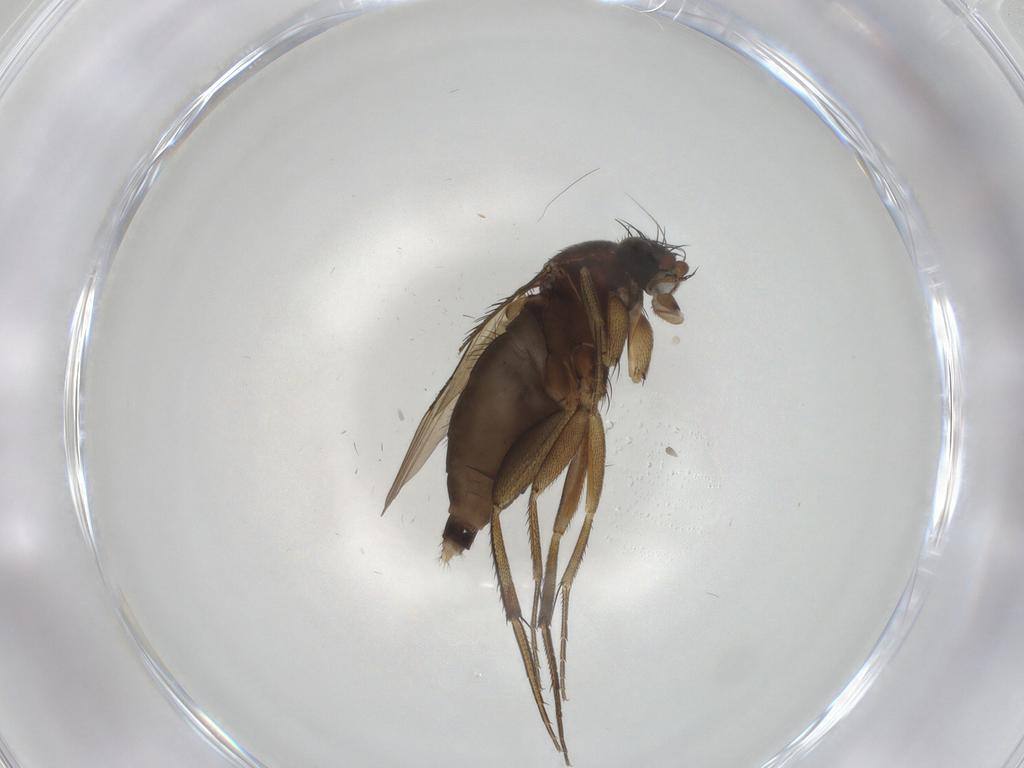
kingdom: Animalia
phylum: Arthropoda
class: Insecta
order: Diptera
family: Phoridae
